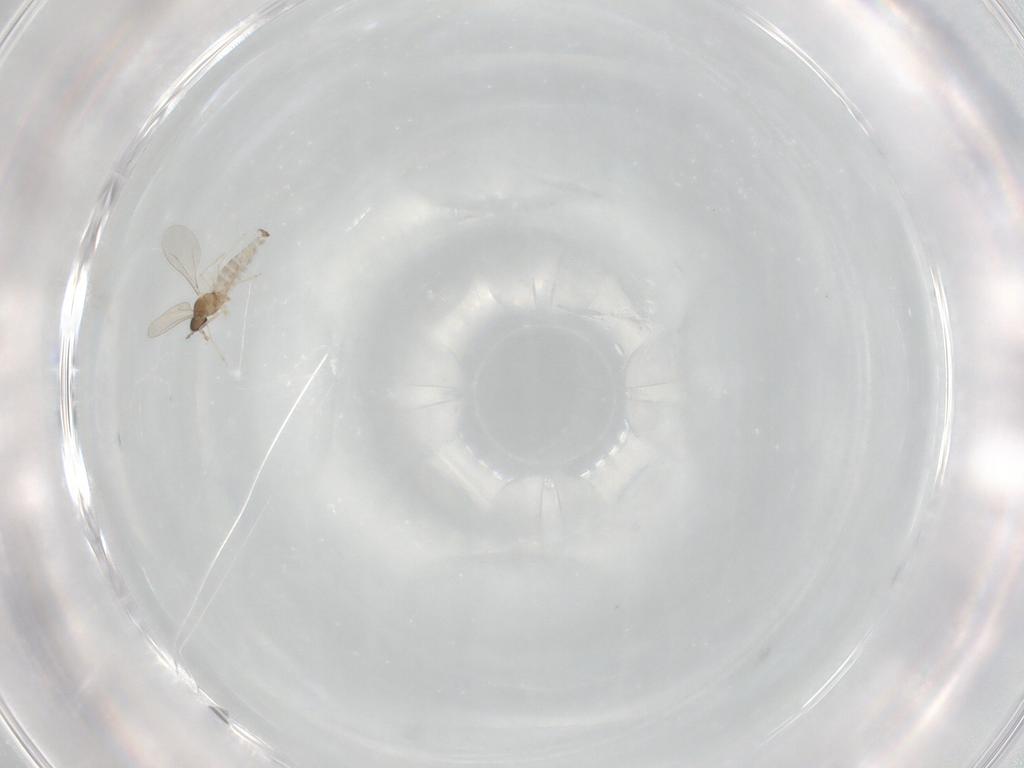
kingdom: Animalia
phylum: Arthropoda
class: Insecta
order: Diptera
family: Cecidomyiidae
